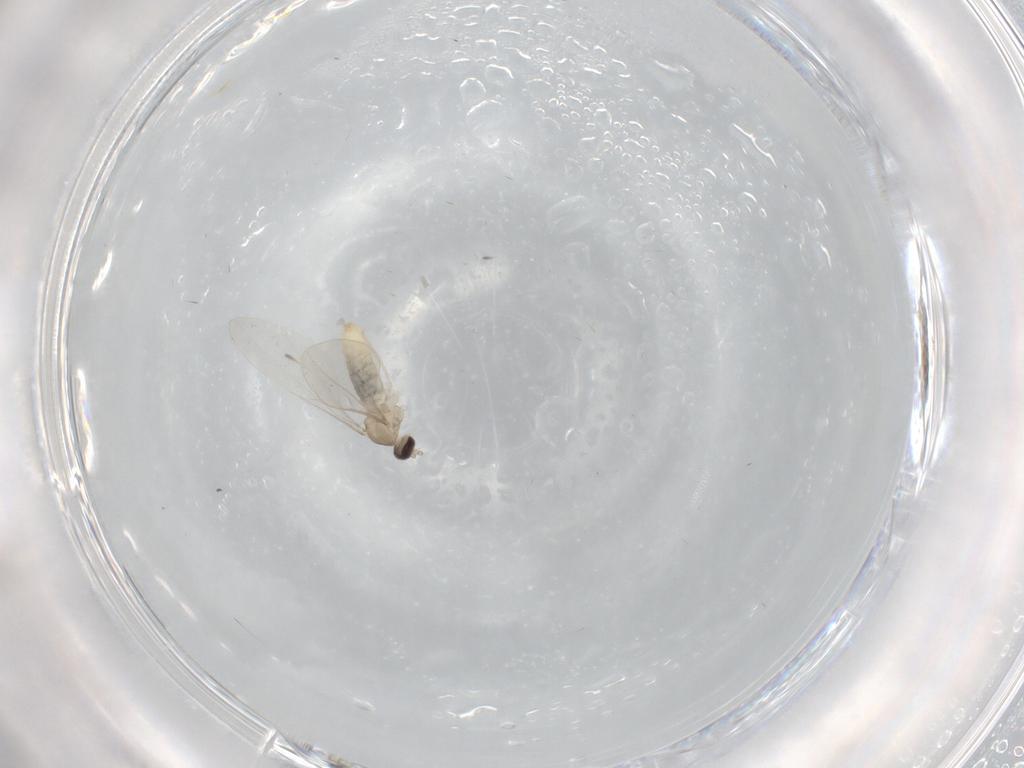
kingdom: Animalia
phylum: Arthropoda
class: Insecta
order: Diptera
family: Cecidomyiidae
